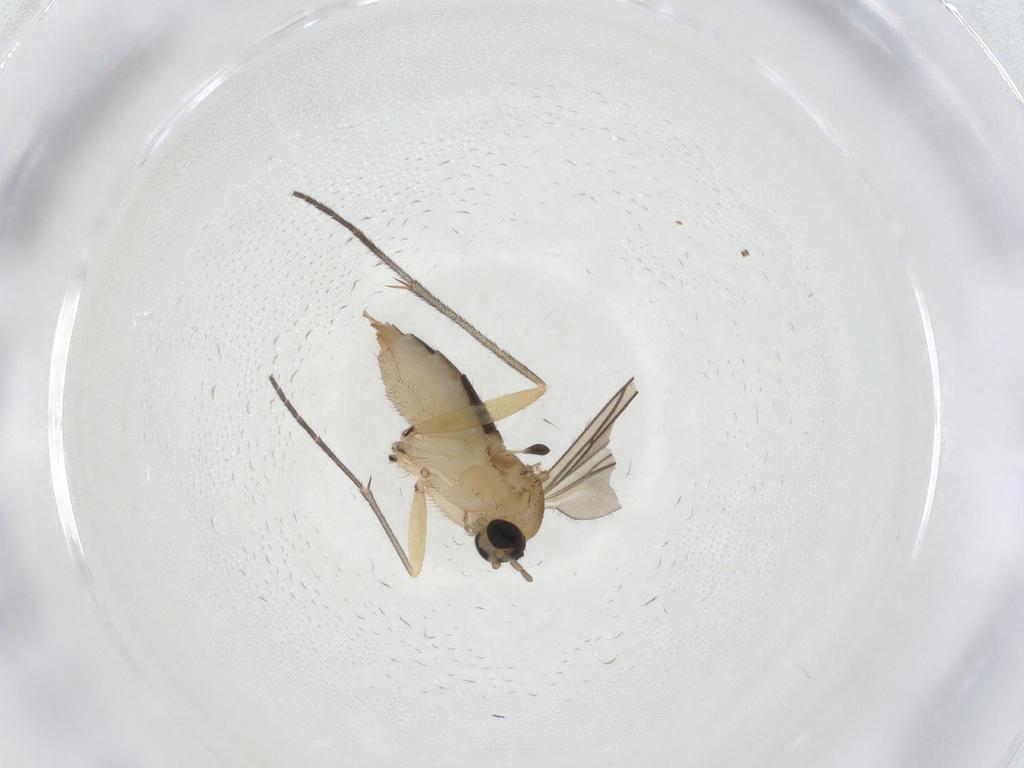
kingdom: Animalia
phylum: Arthropoda
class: Insecta
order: Diptera
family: Sciaridae
